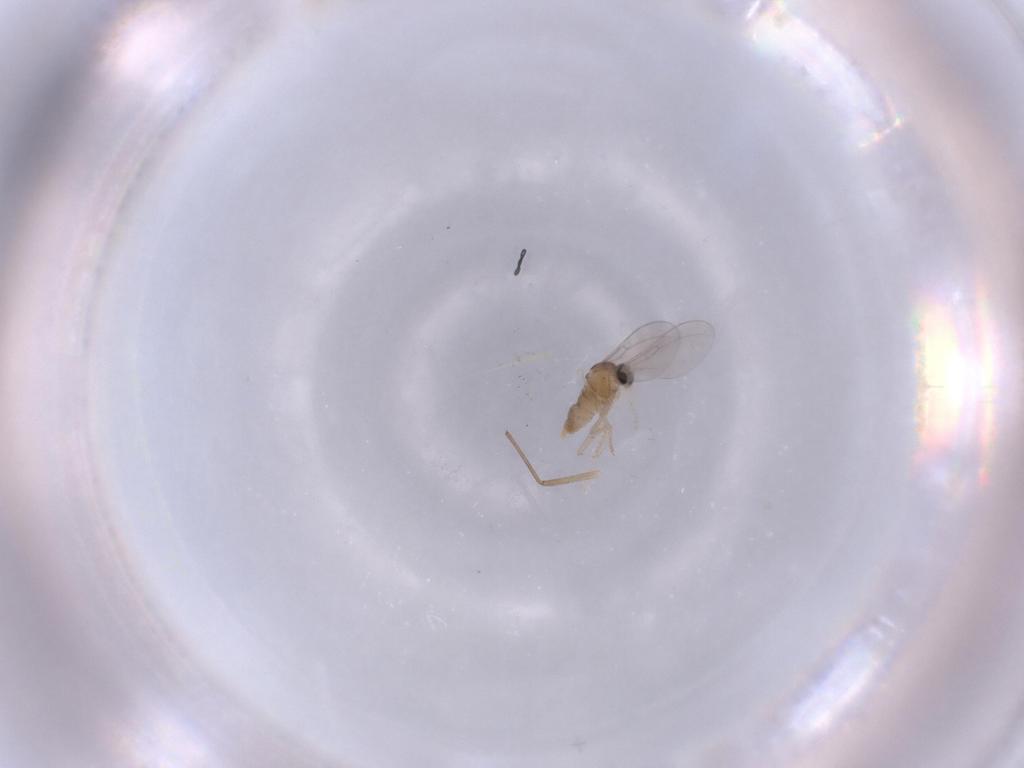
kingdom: Animalia
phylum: Arthropoda
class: Insecta
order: Diptera
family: Cecidomyiidae
